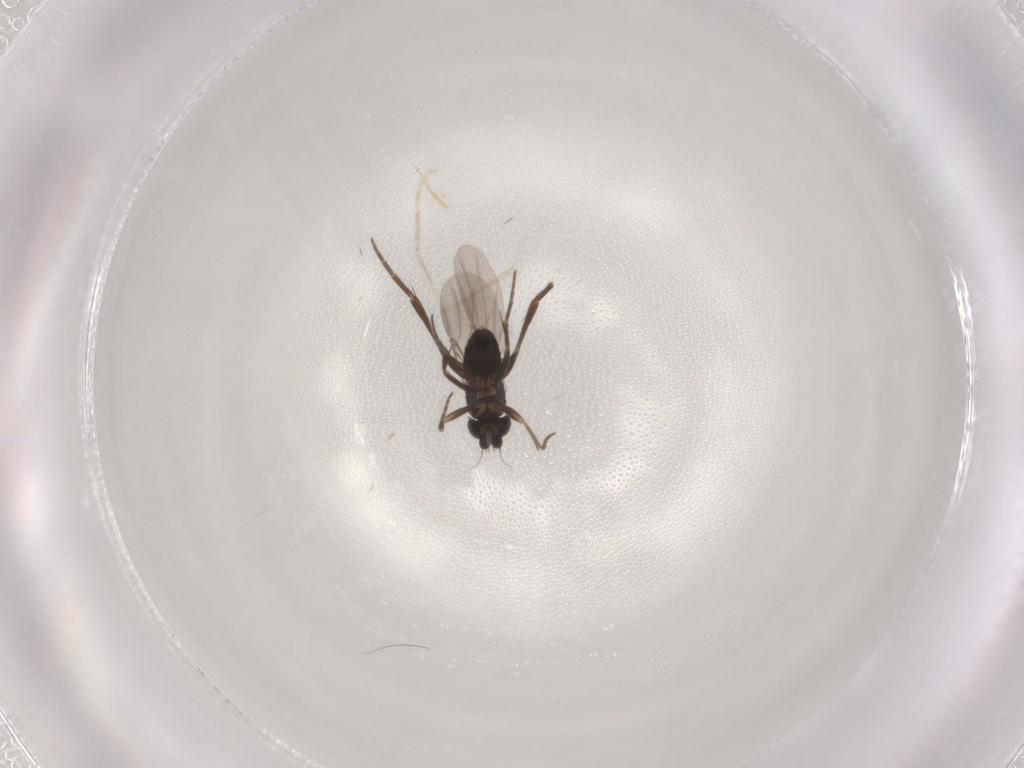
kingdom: Animalia
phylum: Arthropoda
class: Insecta
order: Diptera
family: Phoridae
